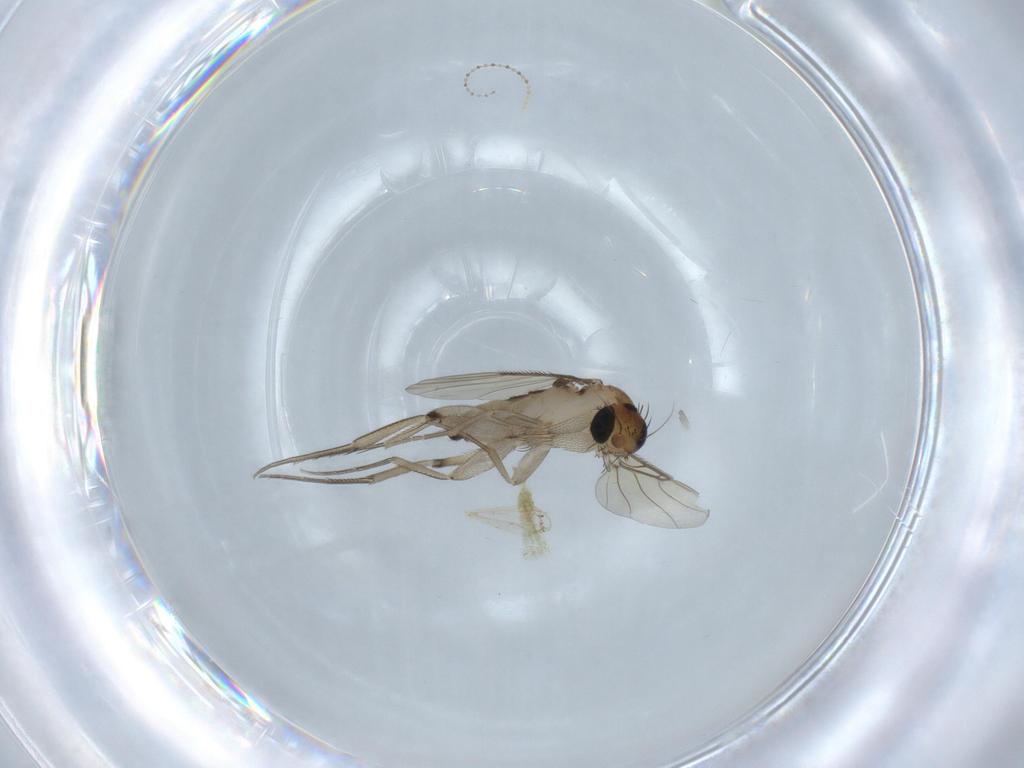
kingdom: Animalia
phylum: Arthropoda
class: Insecta
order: Diptera
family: Phoridae
